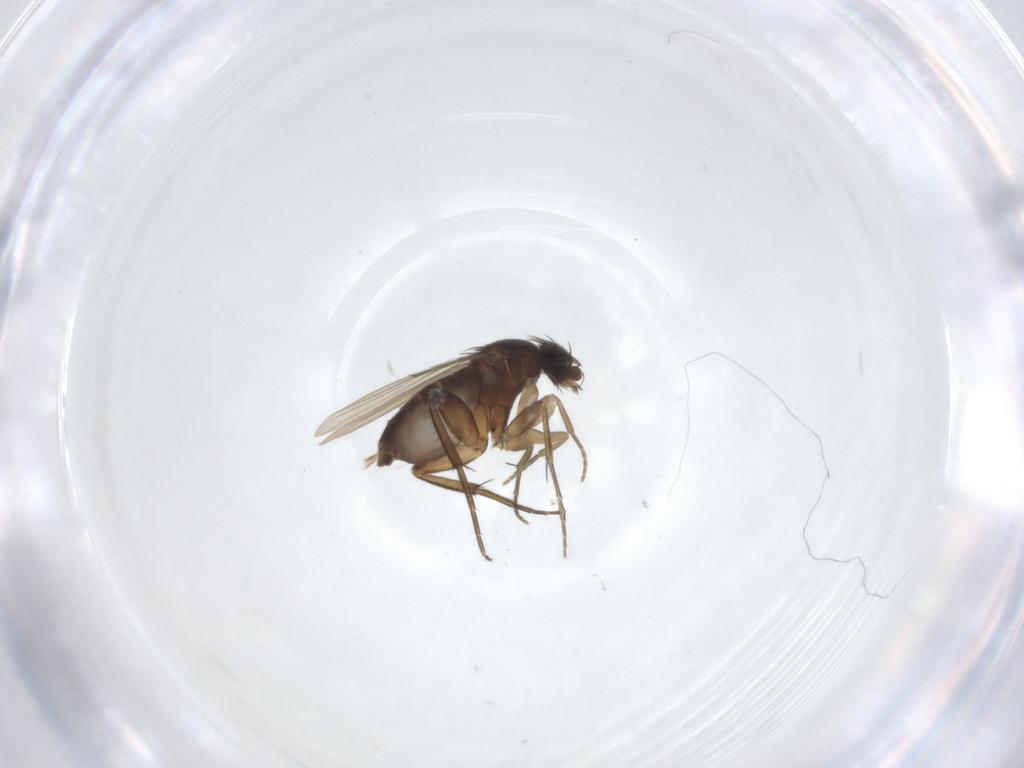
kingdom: Animalia
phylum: Arthropoda
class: Insecta
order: Diptera
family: Phoridae
